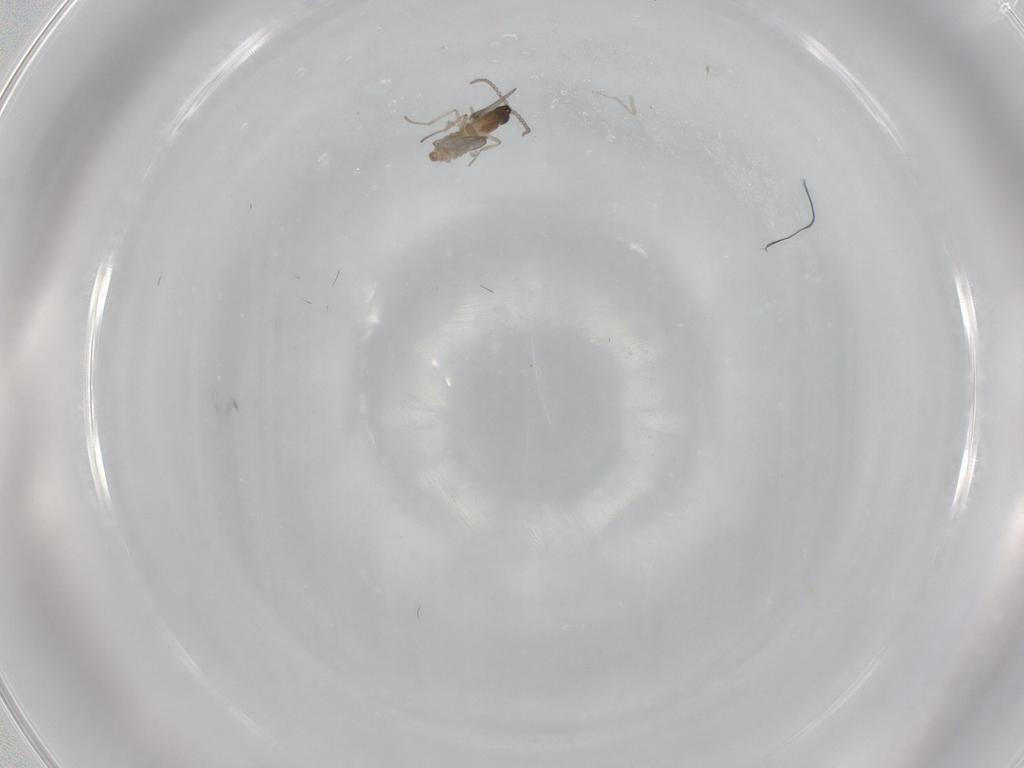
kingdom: Animalia
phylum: Arthropoda
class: Insecta
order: Diptera
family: Cecidomyiidae
